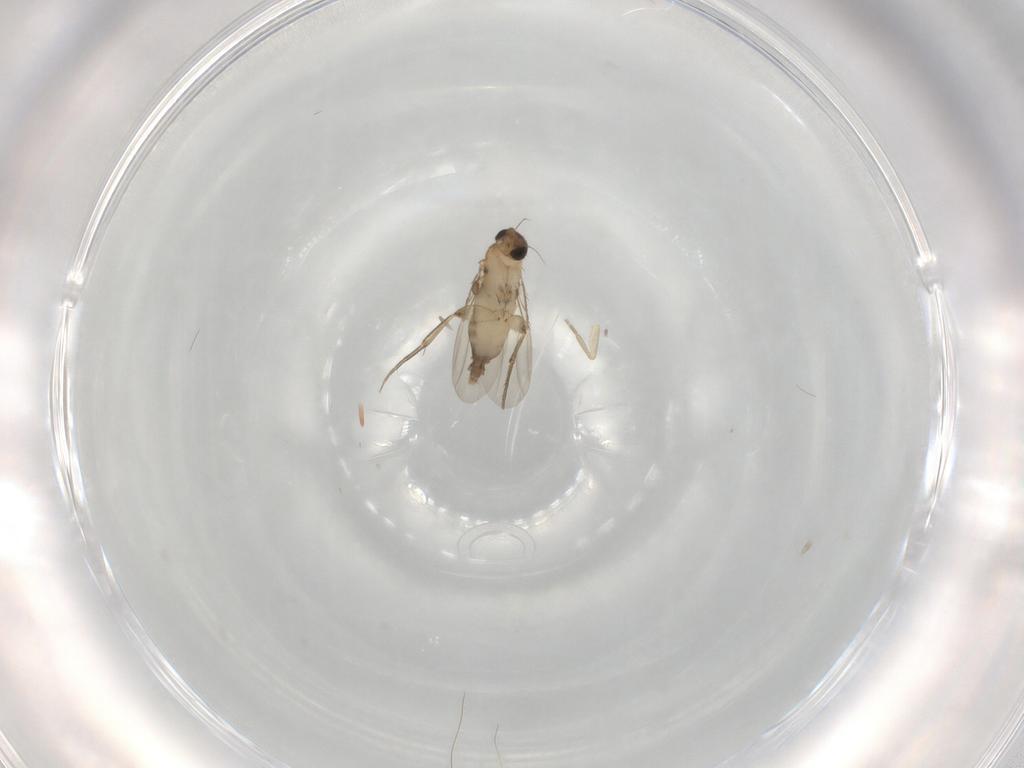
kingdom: Animalia
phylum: Arthropoda
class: Insecta
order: Diptera
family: Phoridae
